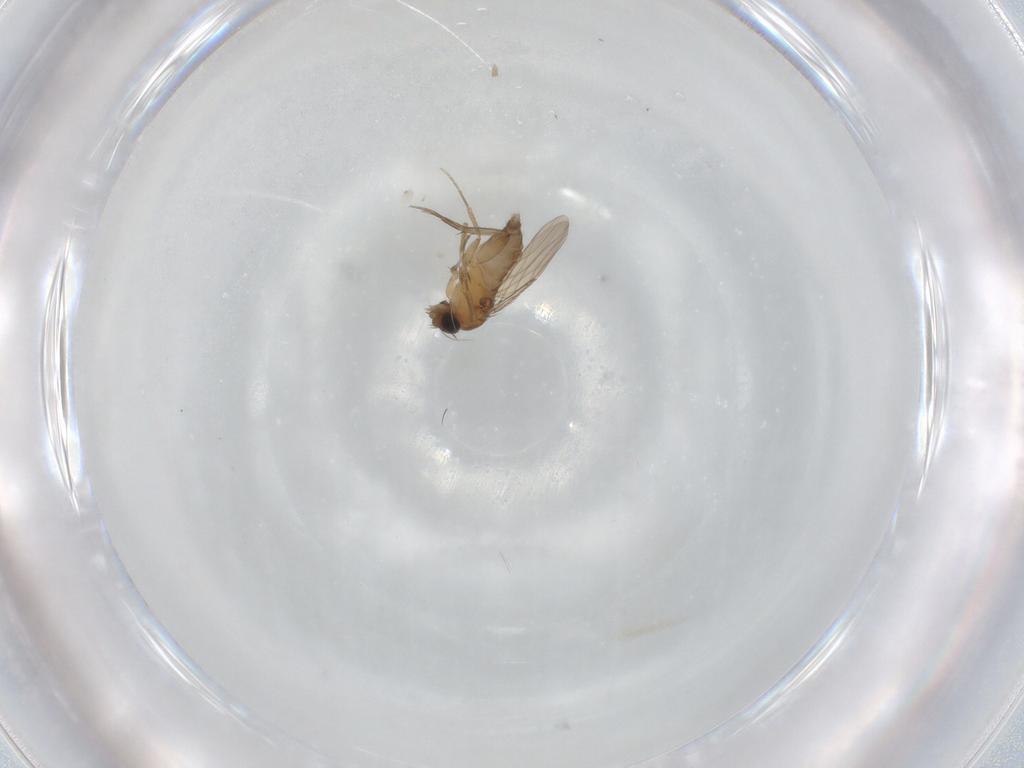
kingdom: Animalia
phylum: Arthropoda
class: Insecta
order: Diptera
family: Phoridae
